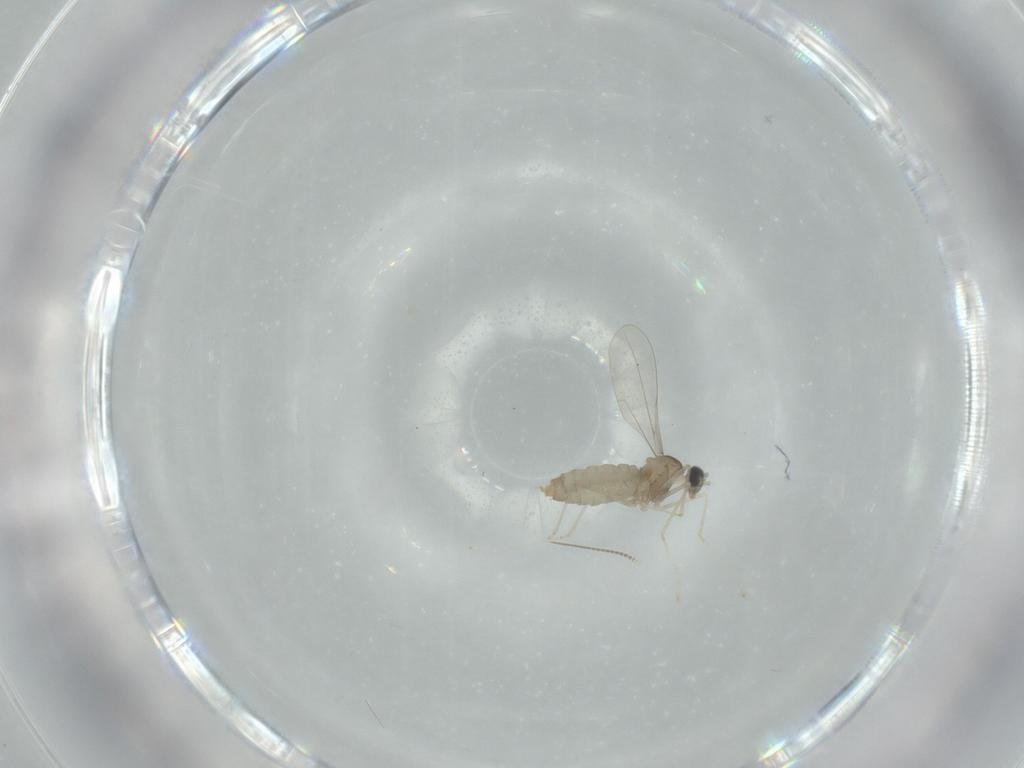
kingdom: Animalia
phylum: Arthropoda
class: Insecta
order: Diptera
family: Cecidomyiidae
